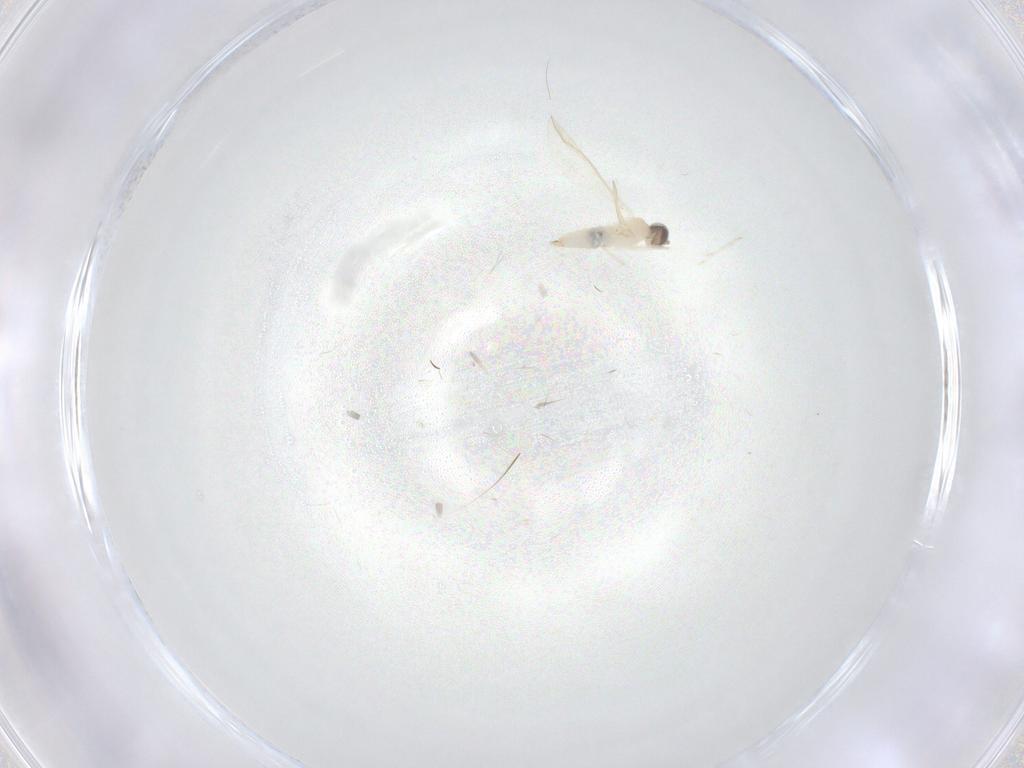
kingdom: Animalia
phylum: Arthropoda
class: Insecta
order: Diptera
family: Cecidomyiidae
